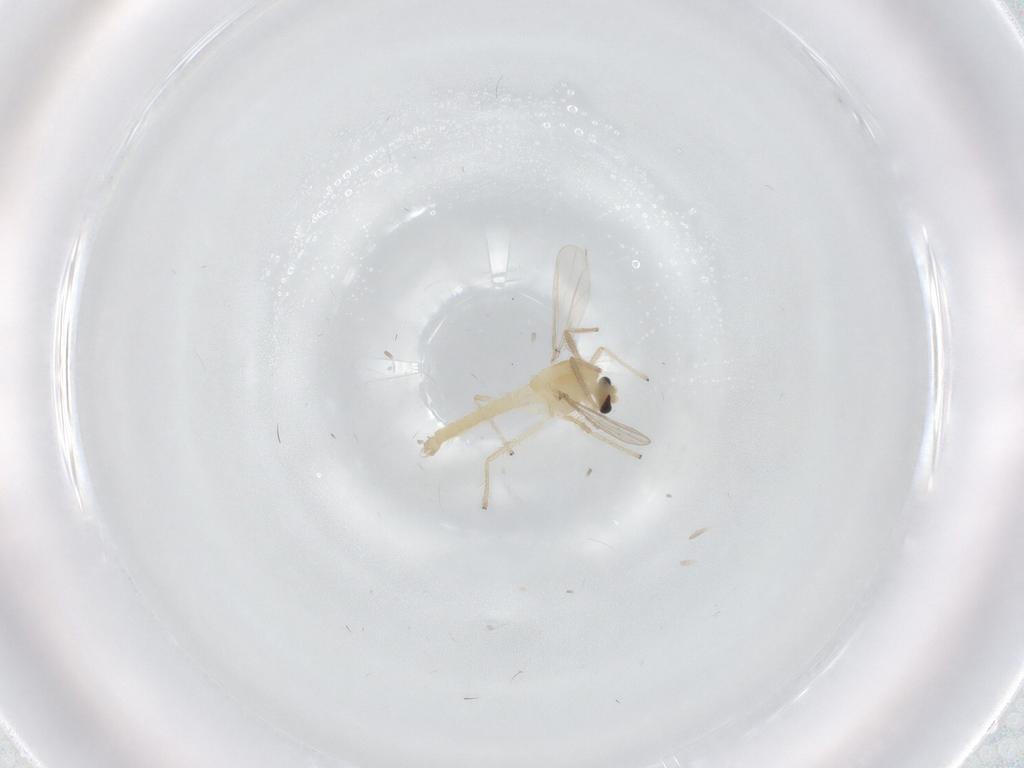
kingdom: Animalia
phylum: Arthropoda
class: Insecta
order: Diptera
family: Chironomidae
